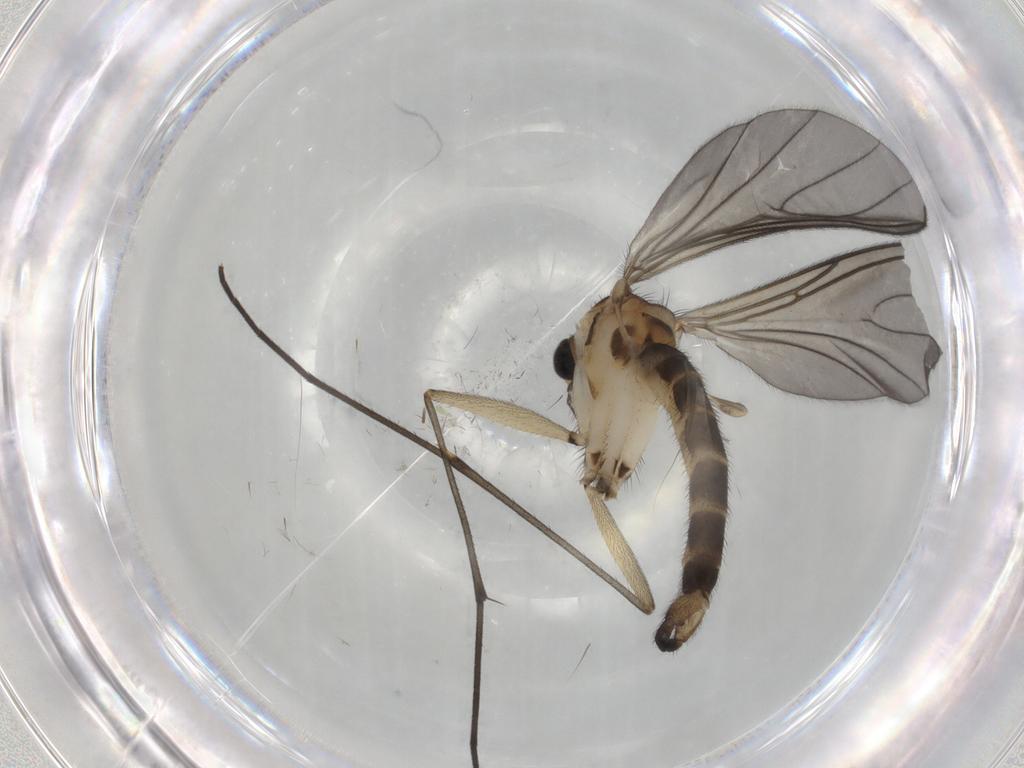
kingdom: Animalia
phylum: Arthropoda
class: Insecta
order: Diptera
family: Sciaridae
